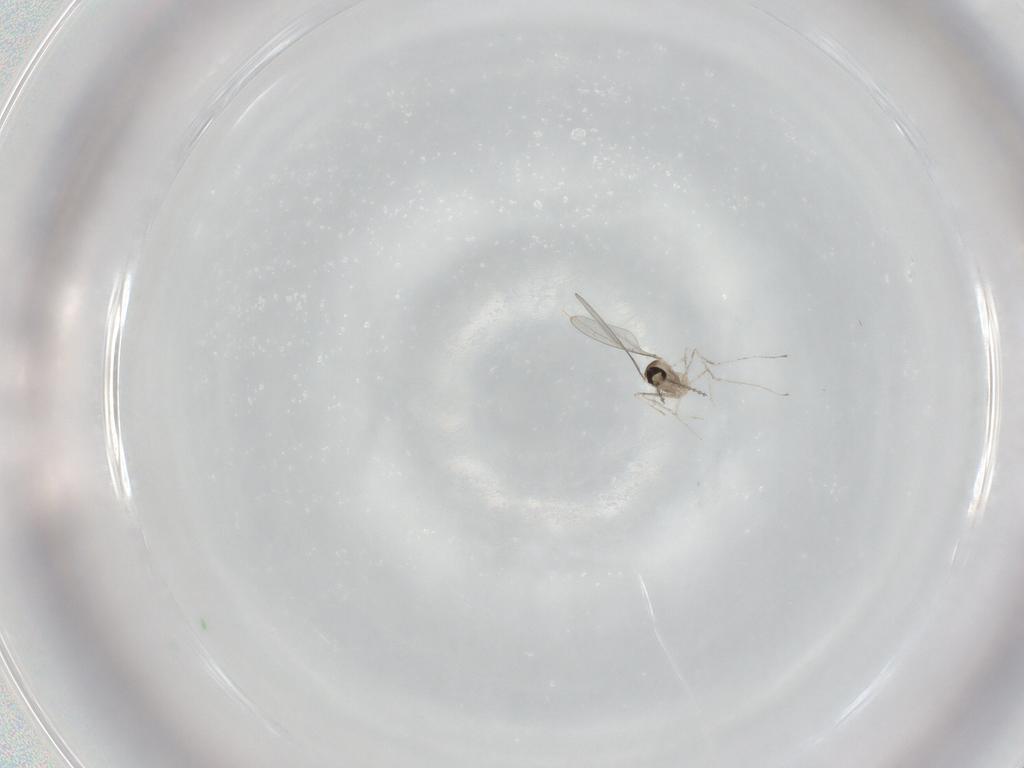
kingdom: Animalia
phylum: Arthropoda
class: Insecta
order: Diptera
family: Cecidomyiidae
